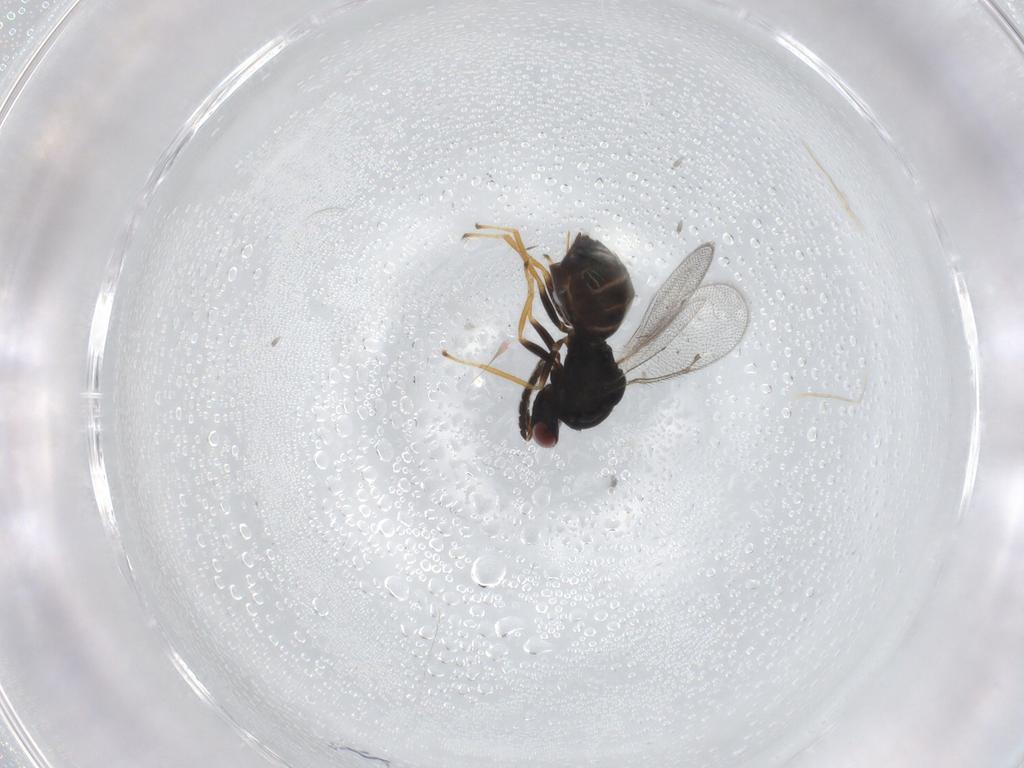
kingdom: Animalia
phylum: Arthropoda
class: Insecta
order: Hymenoptera
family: Eulophidae
